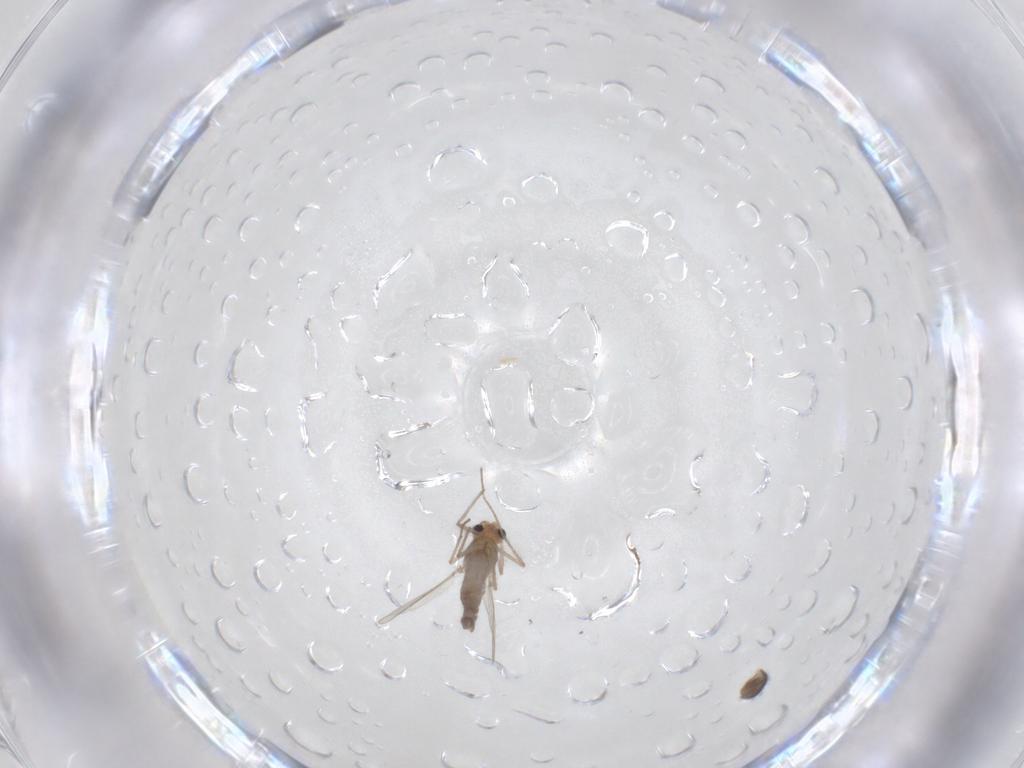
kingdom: Animalia
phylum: Arthropoda
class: Insecta
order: Diptera
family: Chironomidae
